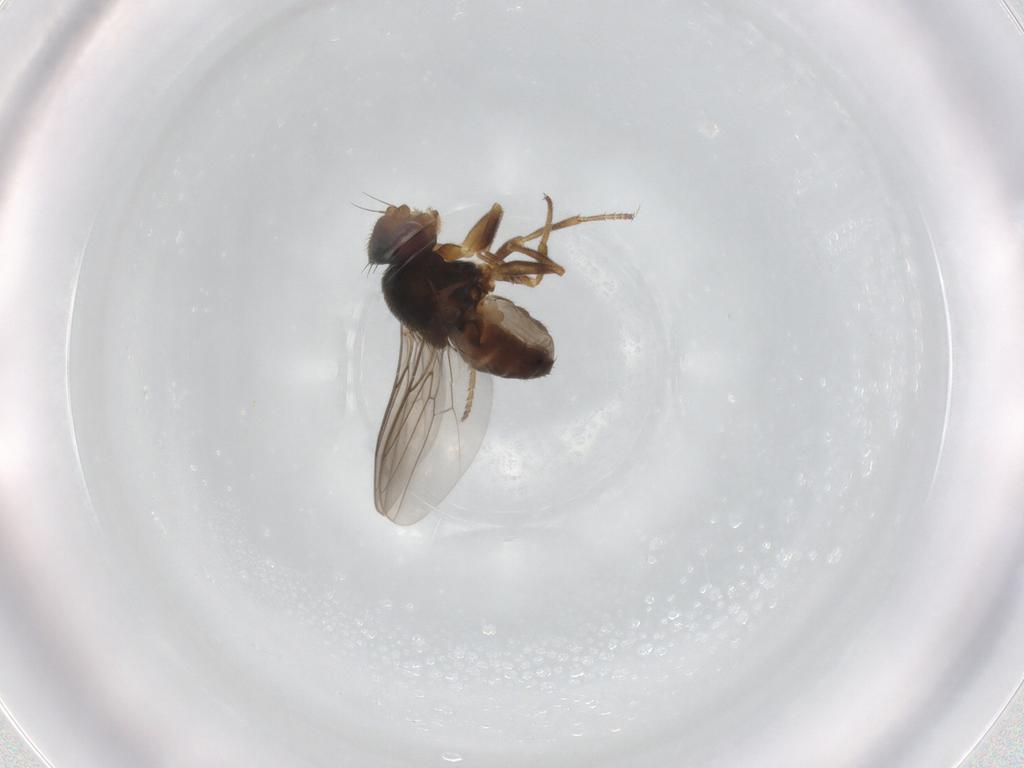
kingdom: Animalia
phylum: Arthropoda
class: Insecta
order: Diptera
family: Chloropidae
